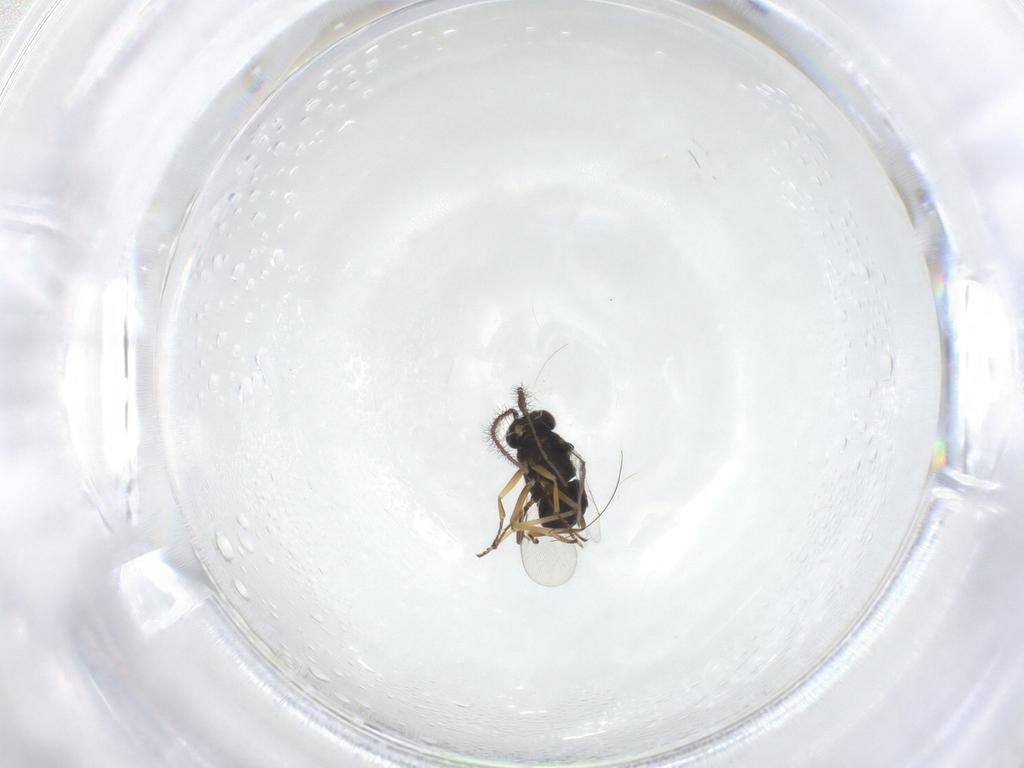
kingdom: Animalia
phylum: Arthropoda
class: Insecta
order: Hymenoptera
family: Encyrtidae
